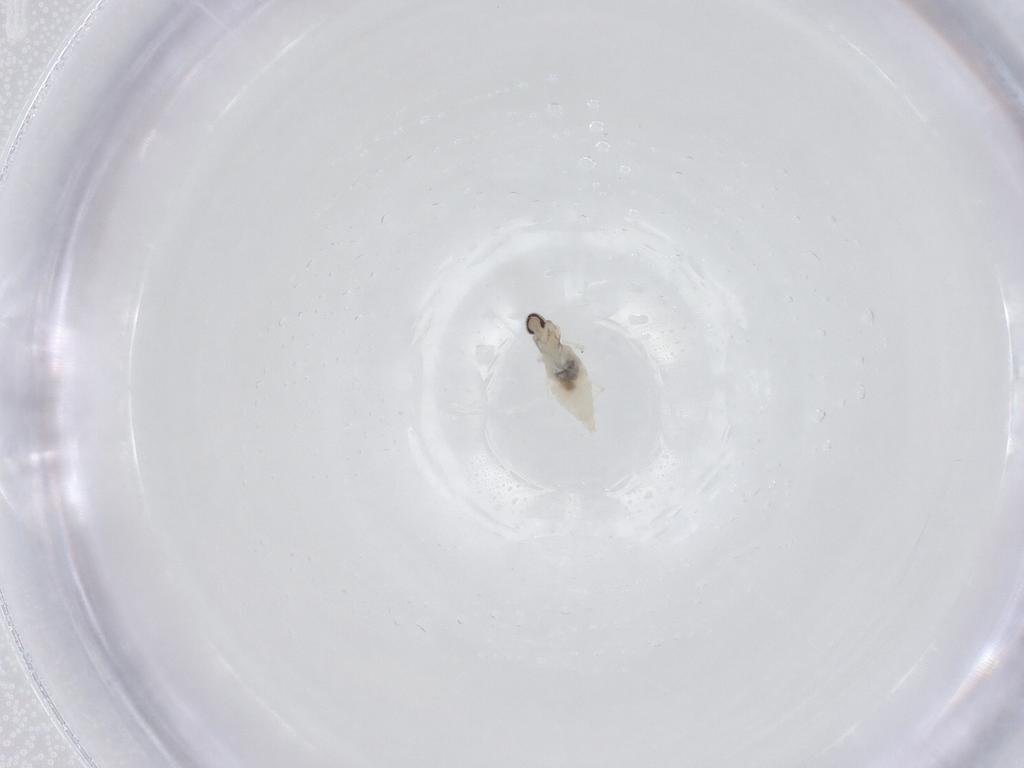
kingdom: Animalia
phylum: Arthropoda
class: Insecta
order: Diptera
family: Cecidomyiidae
